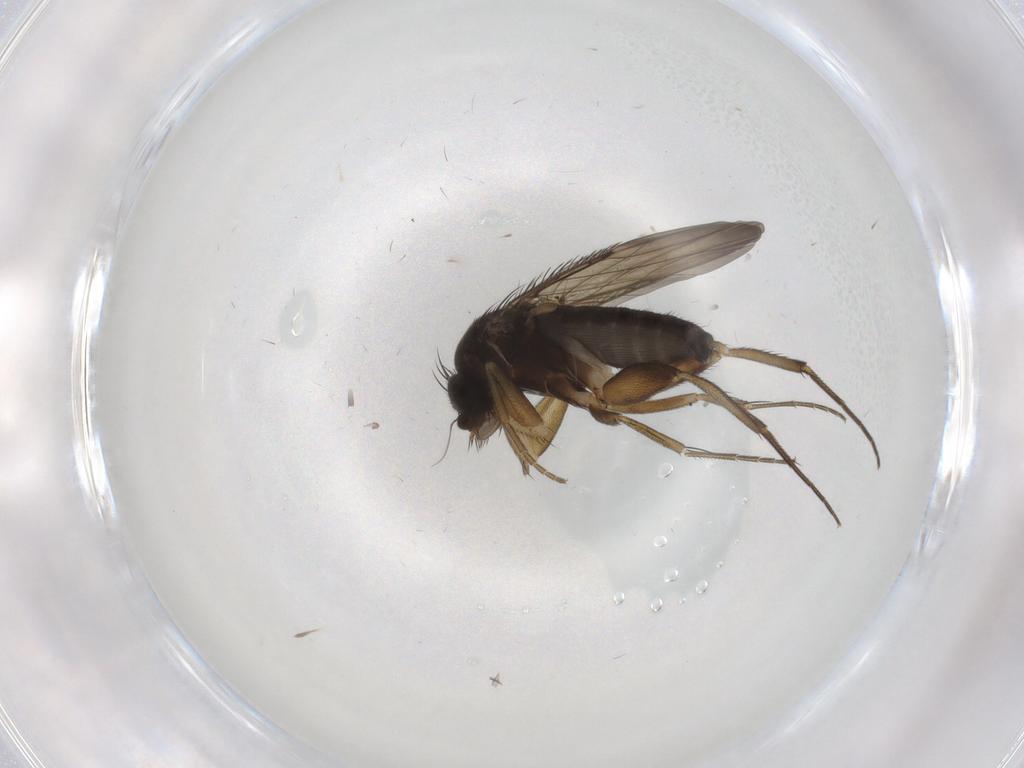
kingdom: Animalia
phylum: Arthropoda
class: Insecta
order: Diptera
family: Phoridae
